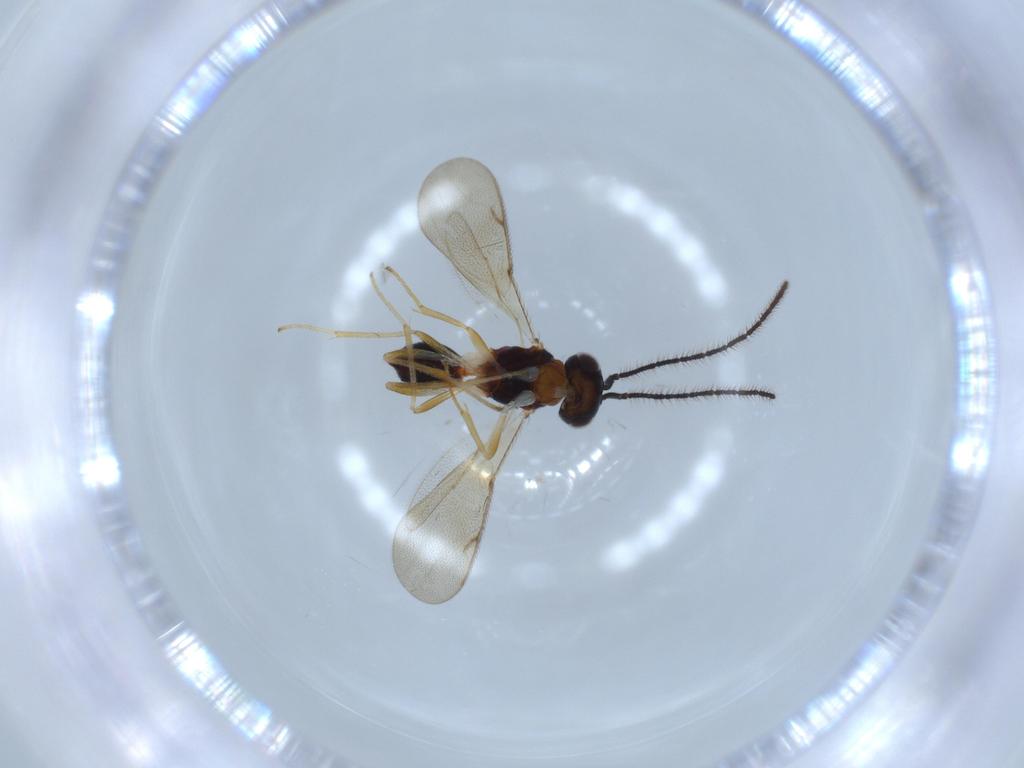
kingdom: Animalia
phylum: Arthropoda
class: Insecta
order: Hymenoptera
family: Diparidae
